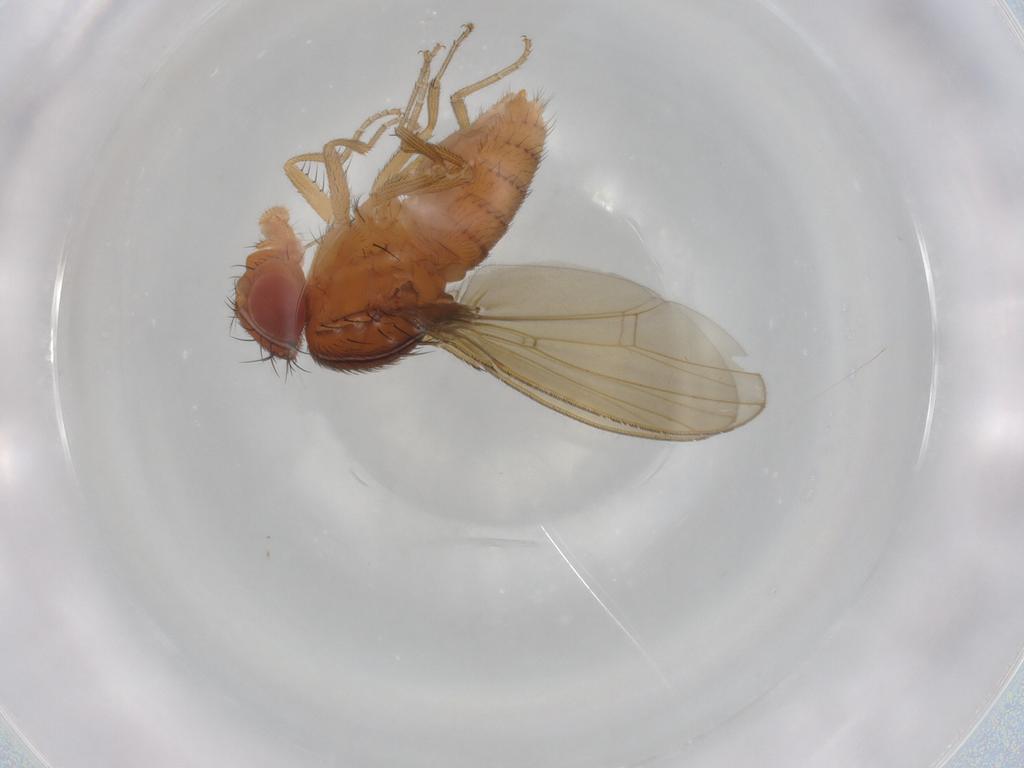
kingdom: Animalia
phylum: Arthropoda
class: Insecta
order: Diptera
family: Drosophilidae
